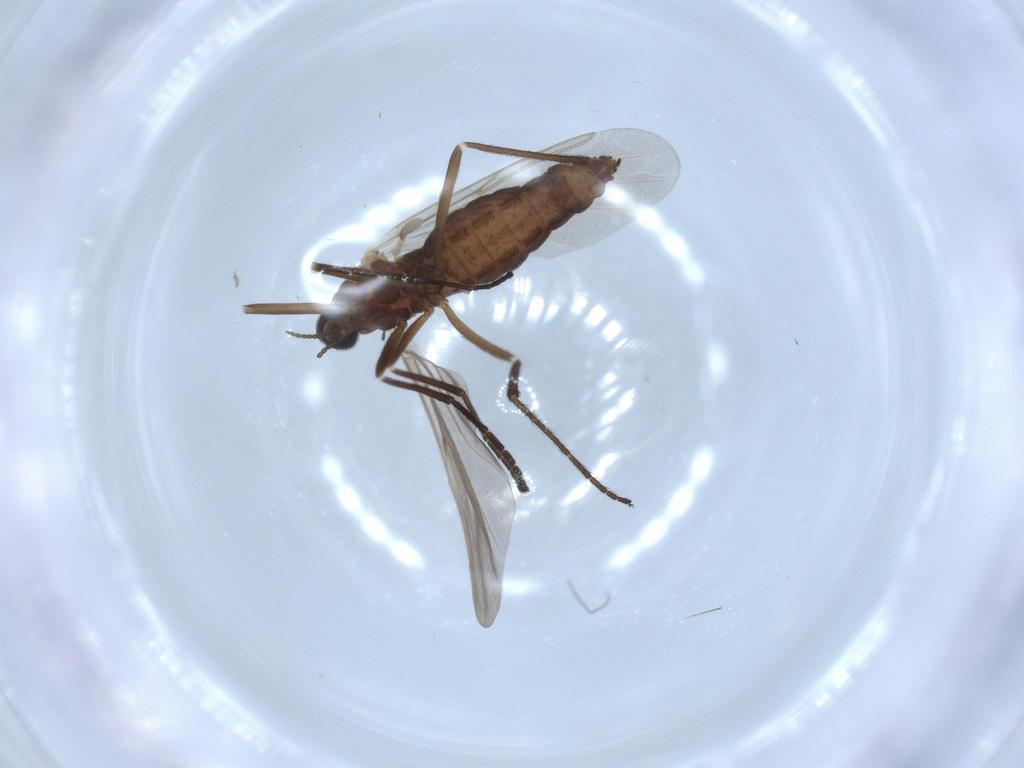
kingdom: Animalia
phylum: Arthropoda
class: Insecta
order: Diptera
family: Cecidomyiidae
